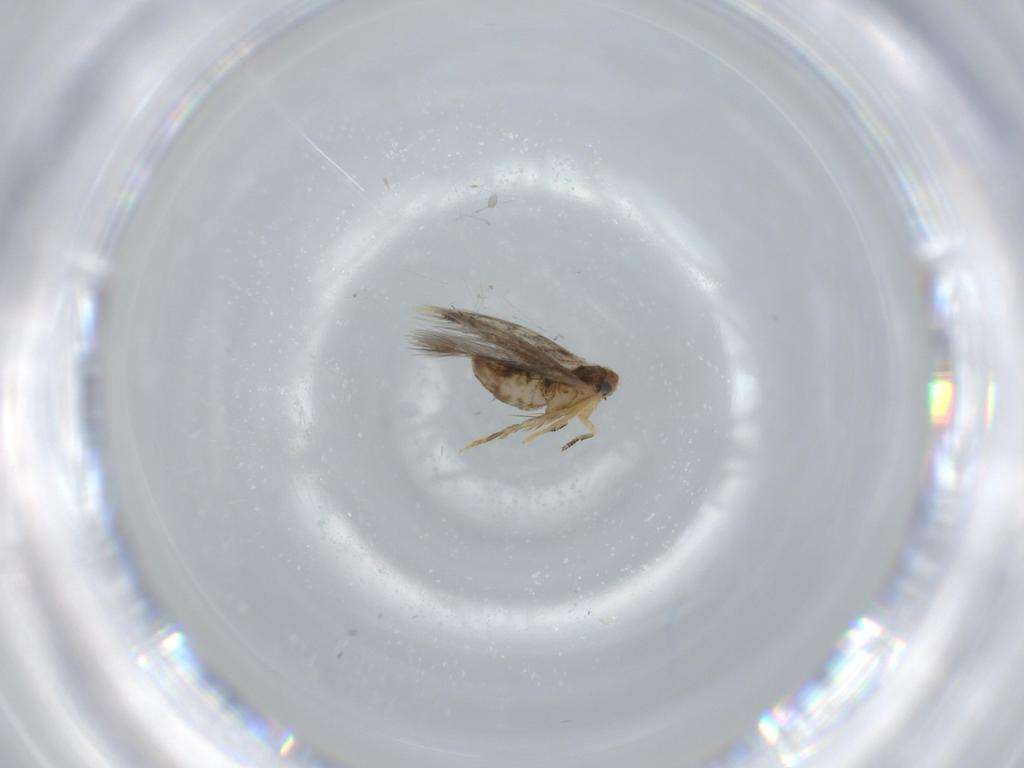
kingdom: Animalia
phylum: Arthropoda
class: Insecta
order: Lepidoptera
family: Nepticulidae
